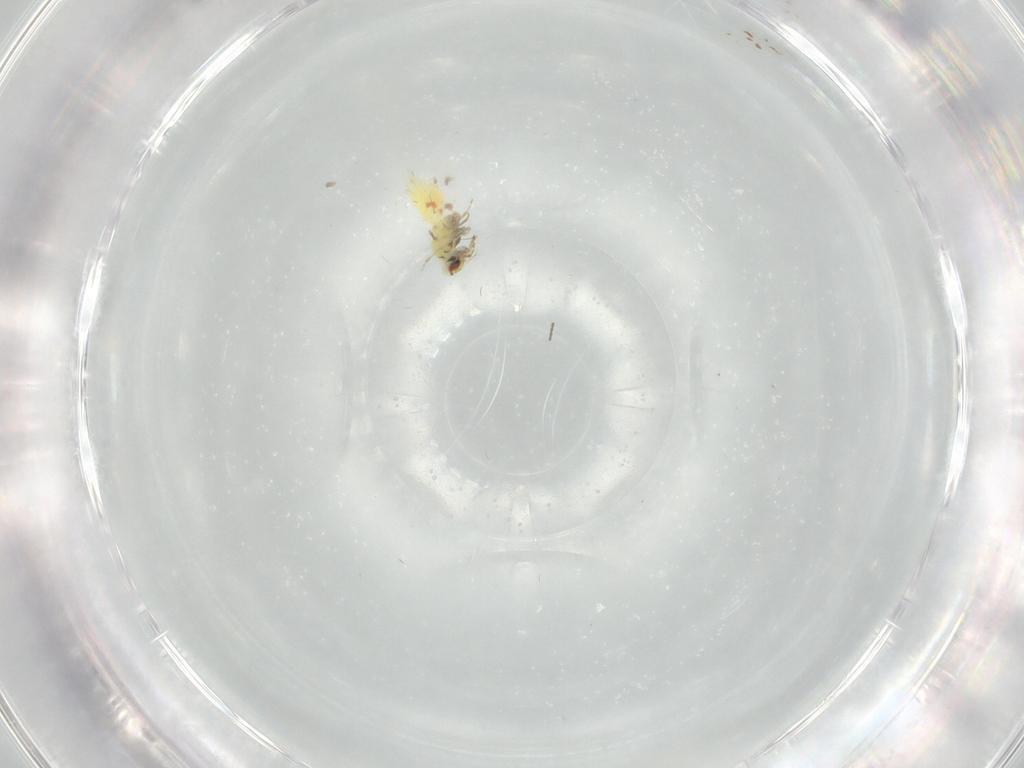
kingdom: Animalia
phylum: Arthropoda
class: Insecta
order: Hemiptera
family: Aleyrodidae
